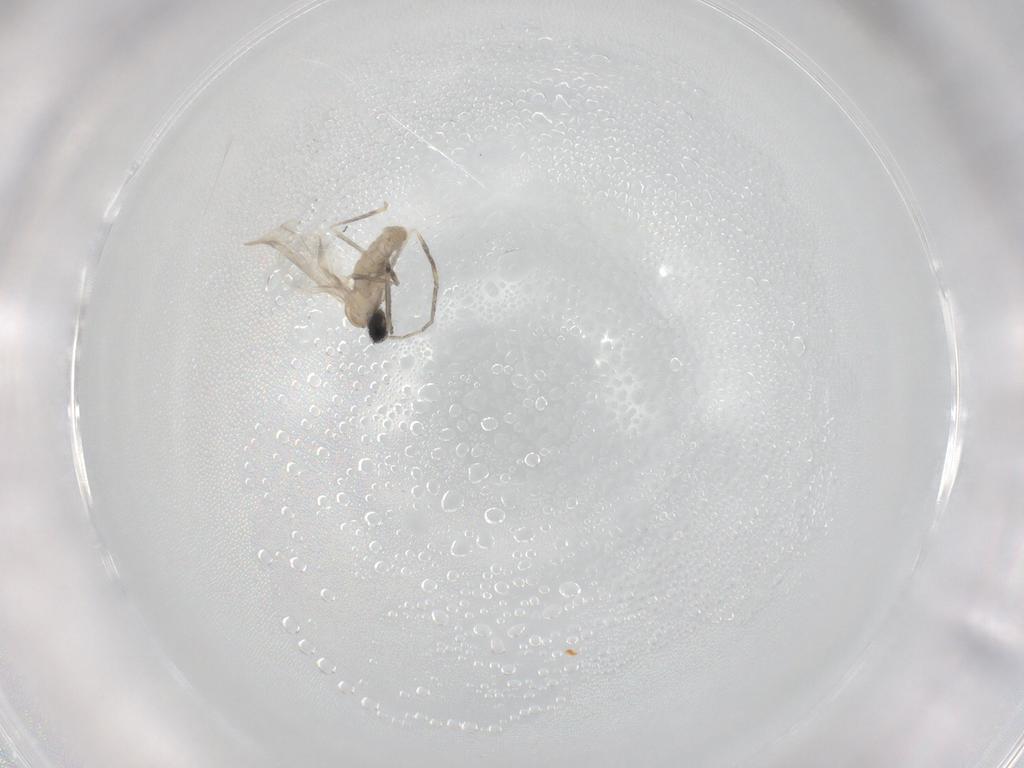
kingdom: Animalia
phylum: Arthropoda
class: Insecta
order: Diptera
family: Cecidomyiidae
